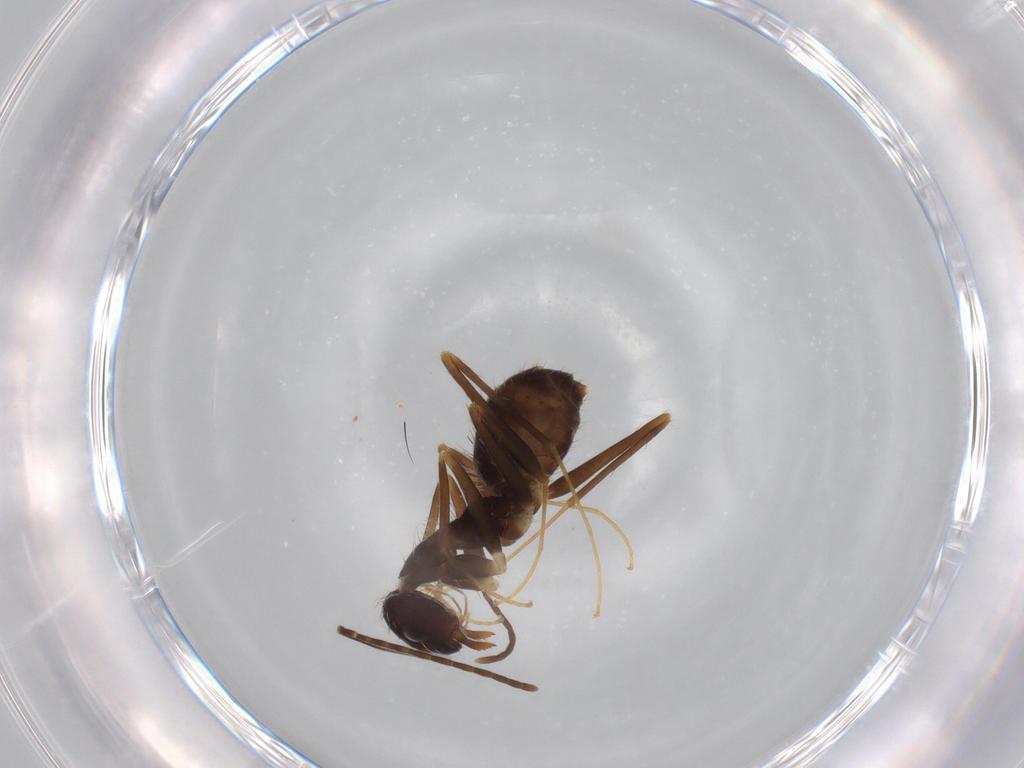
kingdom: Animalia
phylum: Arthropoda
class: Insecta
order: Hymenoptera
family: Formicidae
